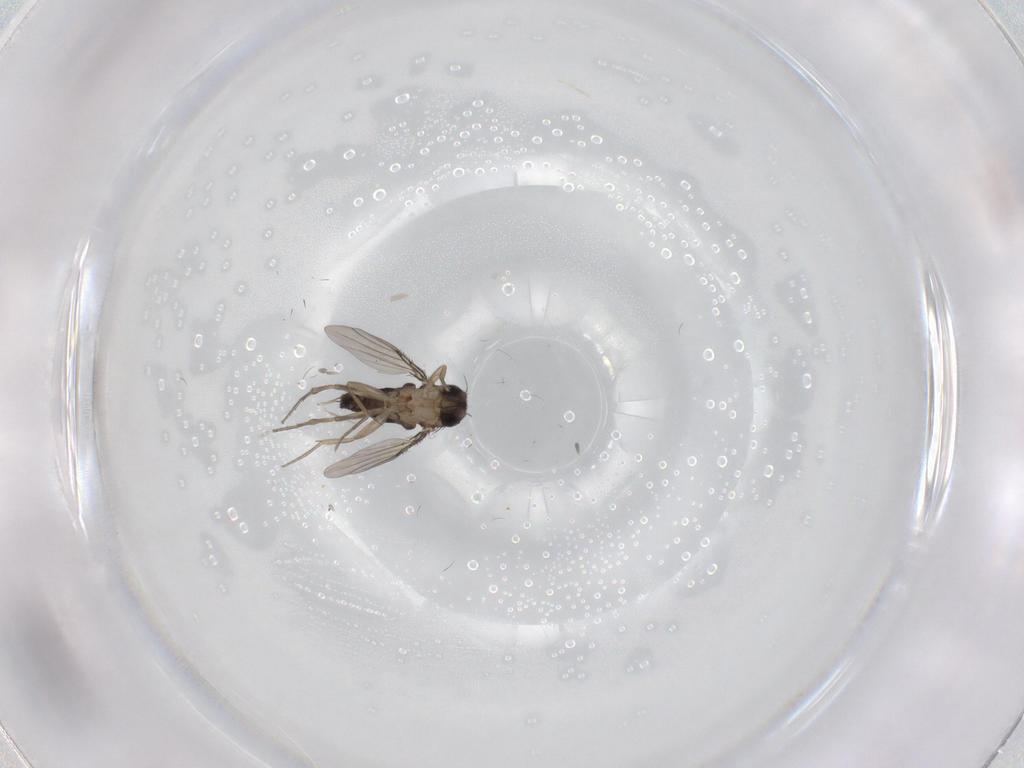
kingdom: Animalia
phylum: Arthropoda
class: Insecta
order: Diptera
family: Phoridae
